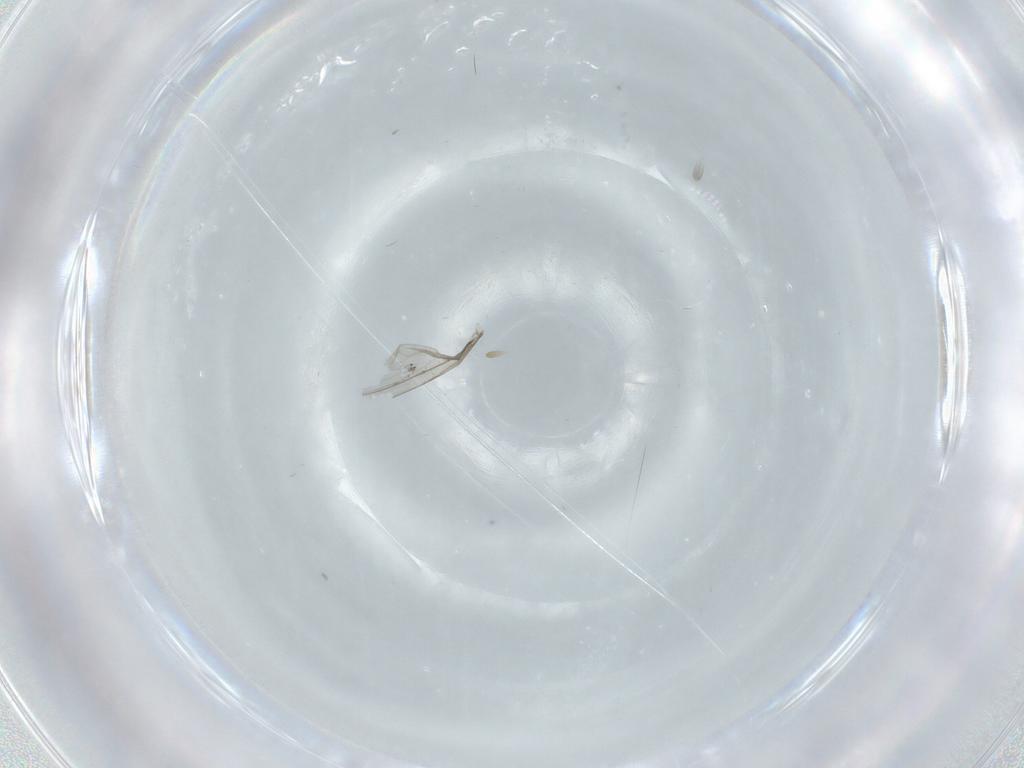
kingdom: Animalia
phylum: Arthropoda
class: Insecta
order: Diptera
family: Cecidomyiidae
